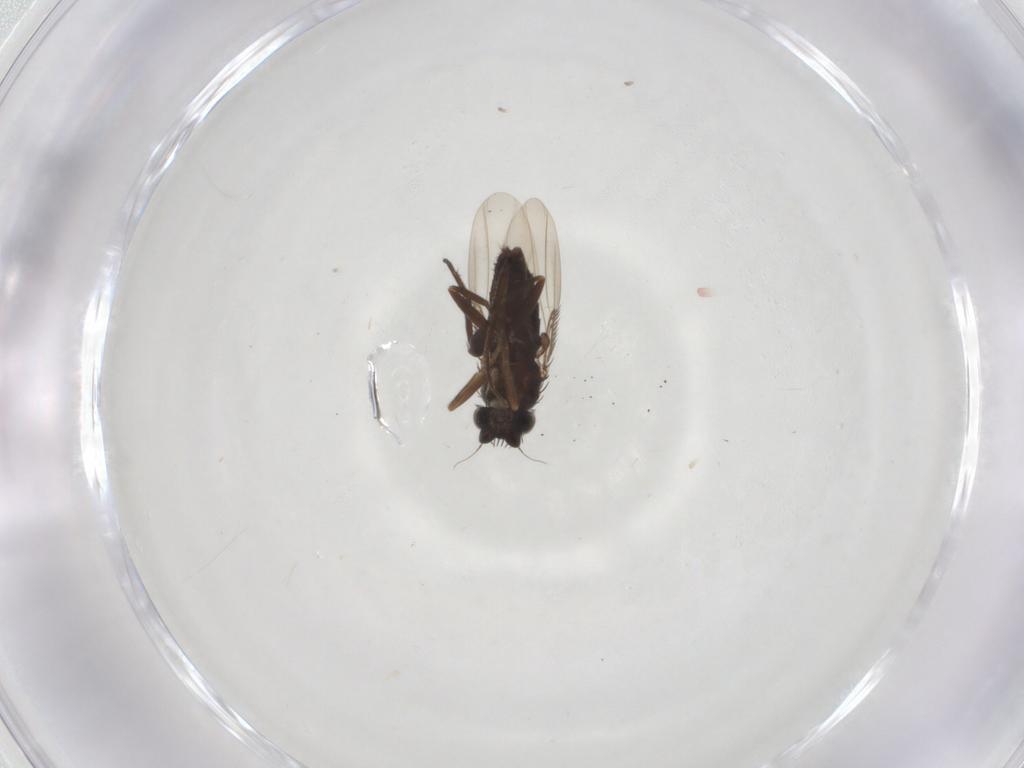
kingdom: Animalia
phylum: Arthropoda
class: Insecta
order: Diptera
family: Phoridae
